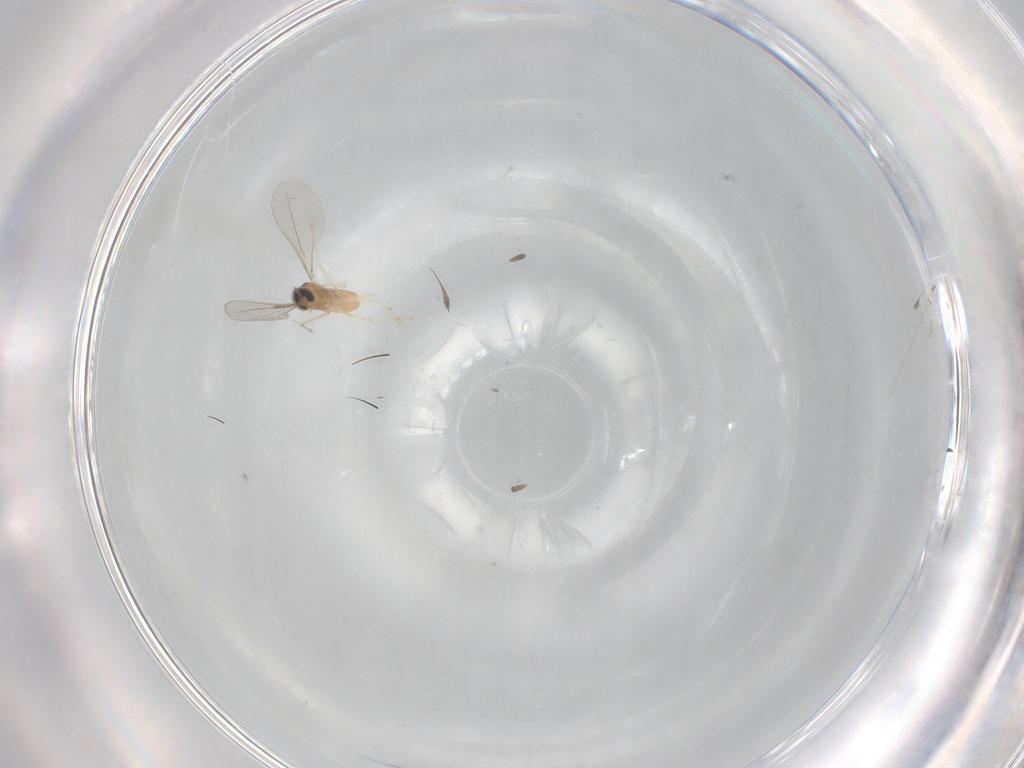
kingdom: Animalia
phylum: Arthropoda
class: Insecta
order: Diptera
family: Cecidomyiidae
